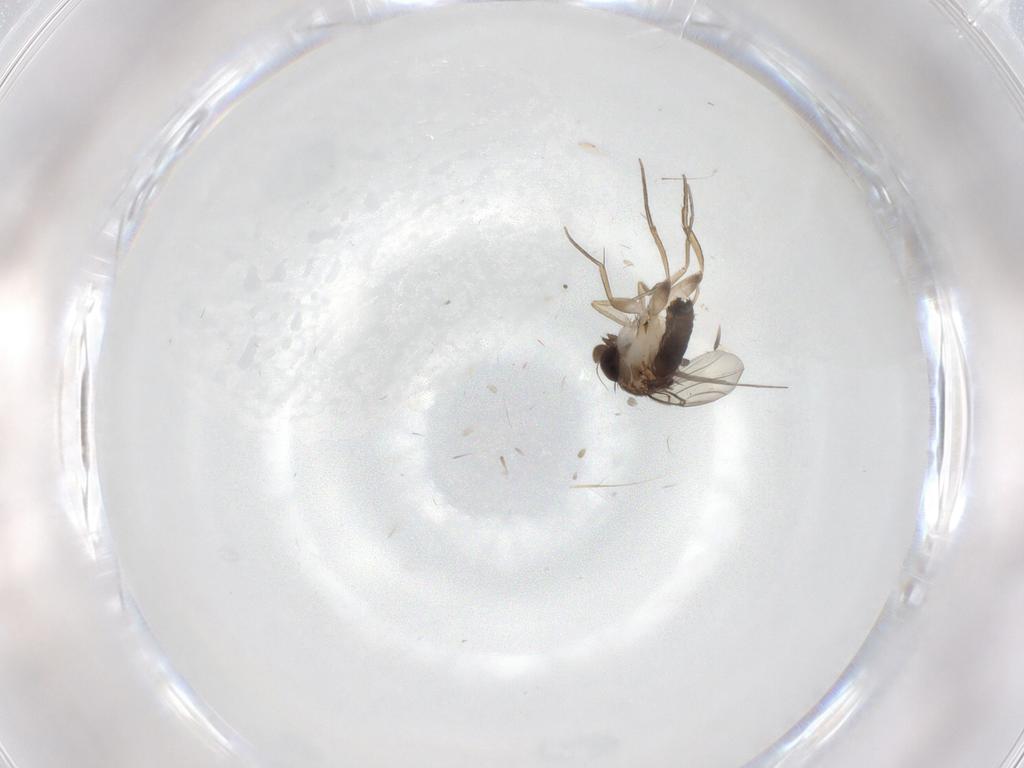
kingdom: Animalia
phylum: Arthropoda
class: Insecta
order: Diptera
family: Phoridae
